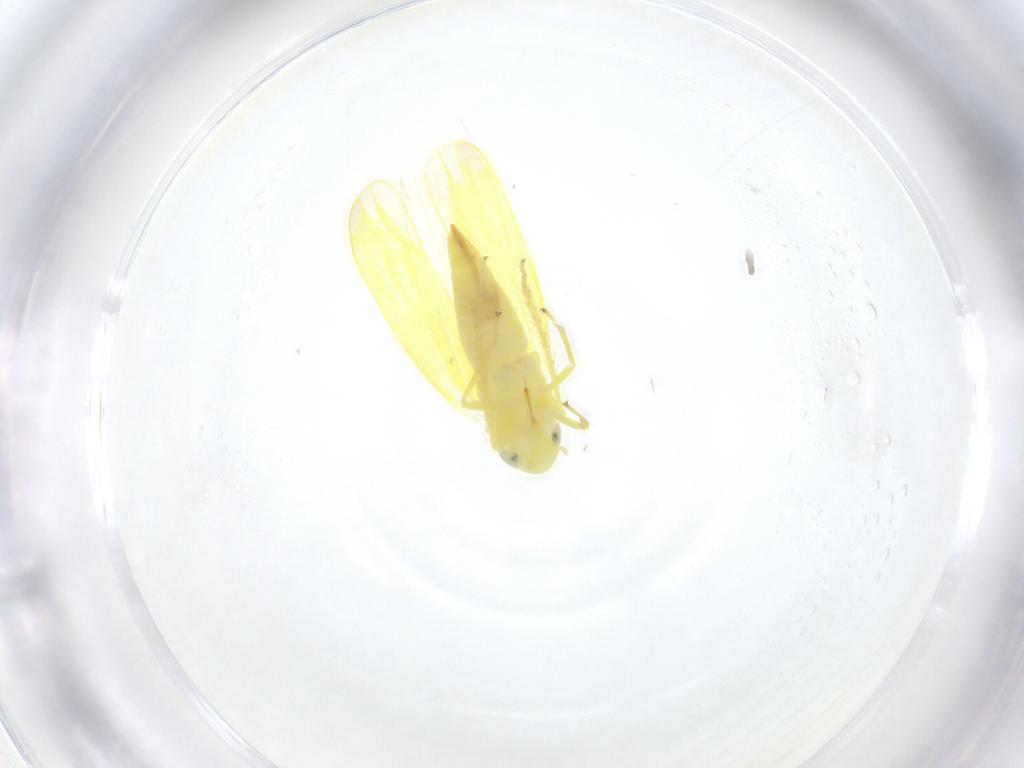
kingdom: Animalia
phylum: Arthropoda
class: Insecta
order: Hemiptera
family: Cicadellidae
